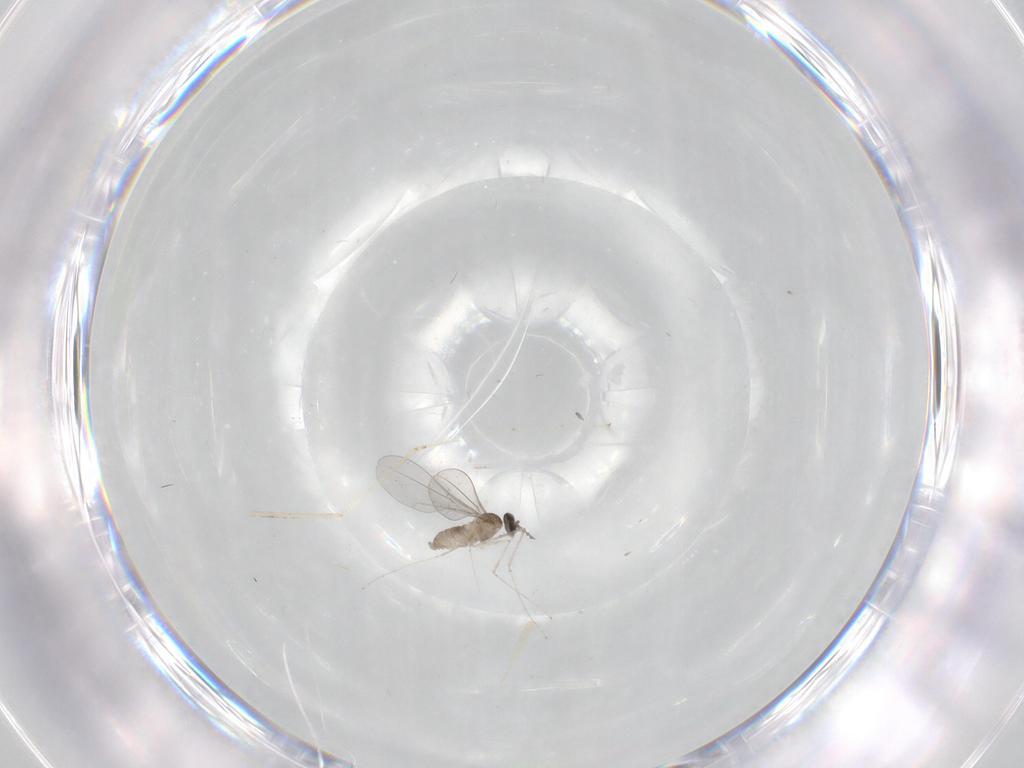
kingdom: Animalia
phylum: Arthropoda
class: Insecta
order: Diptera
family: Cecidomyiidae
